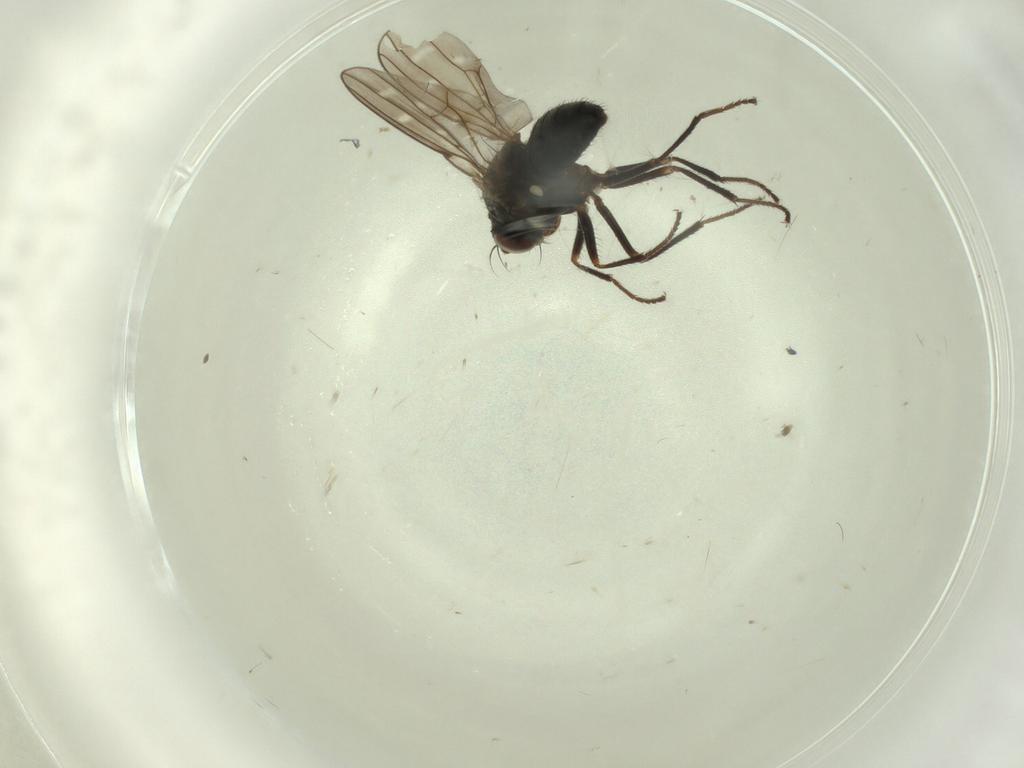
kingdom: Animalia
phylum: Arthropoda
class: Insecta
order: Diptera
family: Ephydridae
